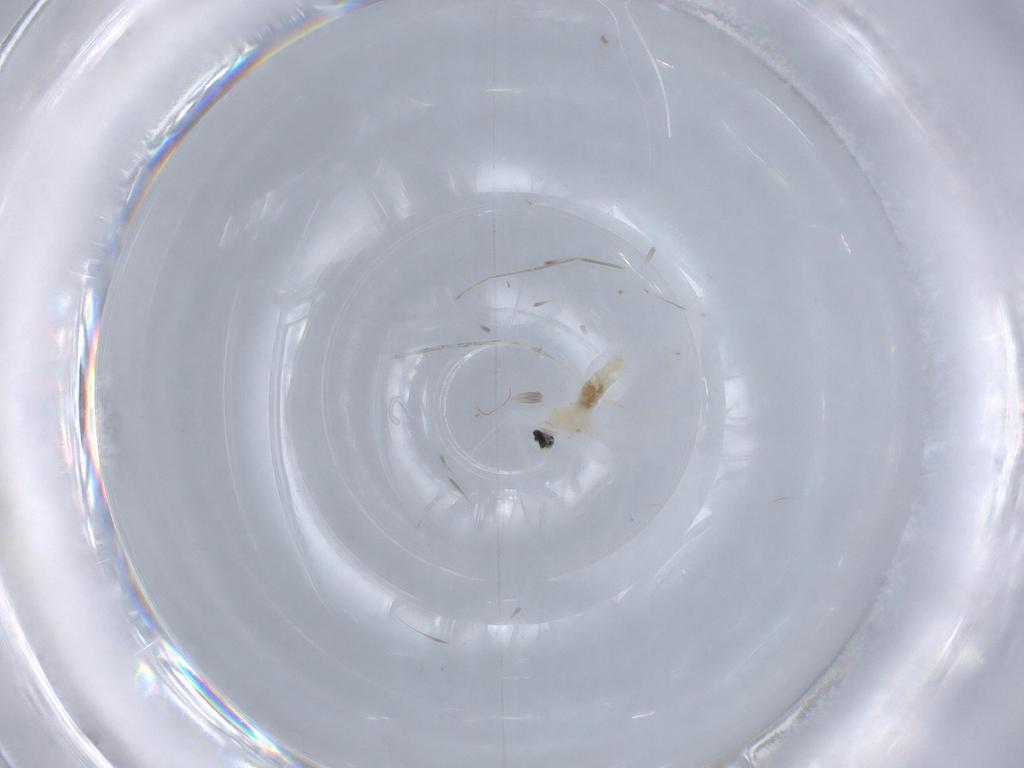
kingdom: Animalia
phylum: Arthropoda
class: Insecta
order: Diptera
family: Cecidomyiidae
